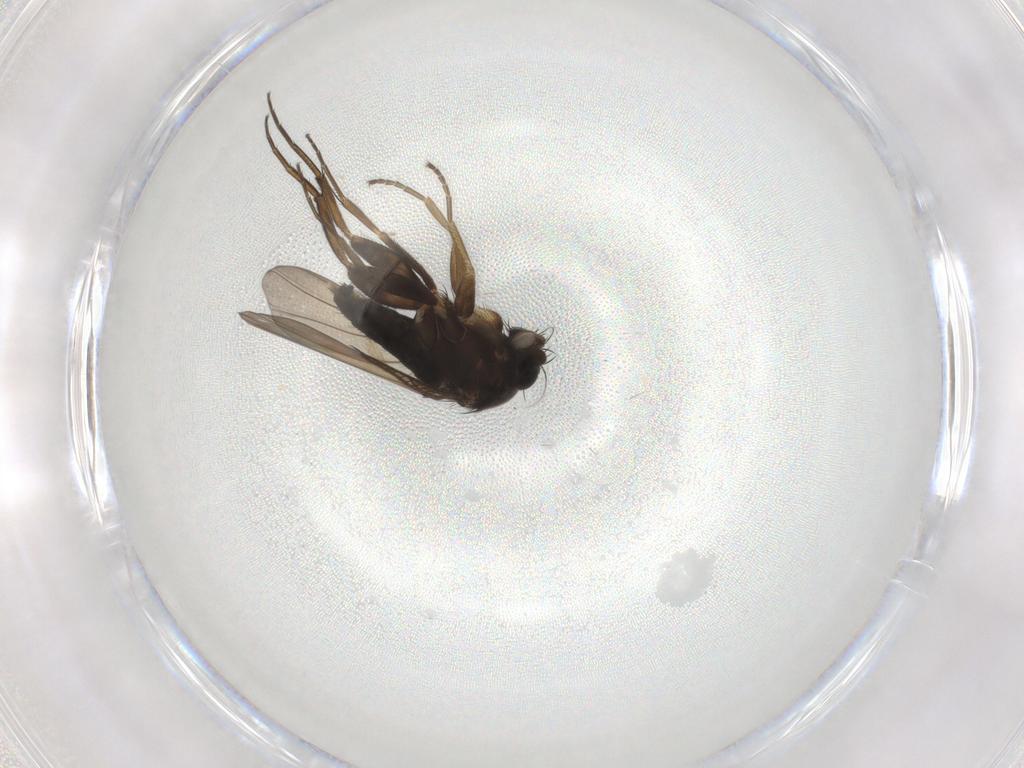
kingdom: Animalia
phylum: Arthropoda
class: Insecta
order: Diptera
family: Phoridae
